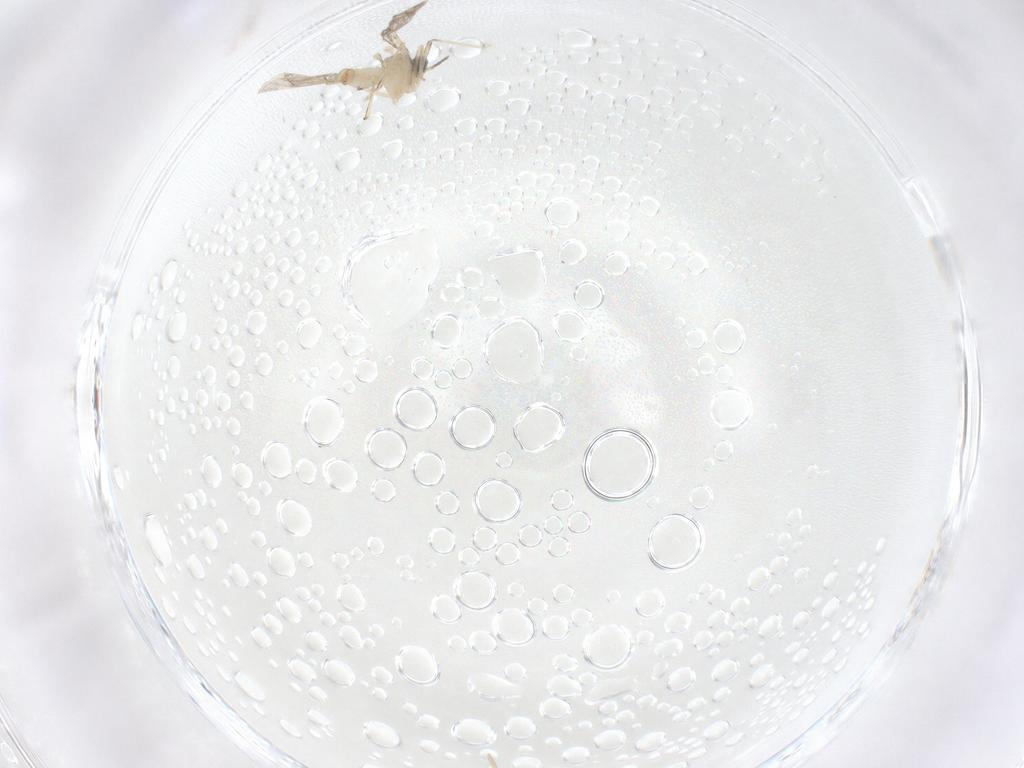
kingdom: Animalia
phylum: Arthropoda
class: Insecta
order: Diptera
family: Cecidomyiidae
